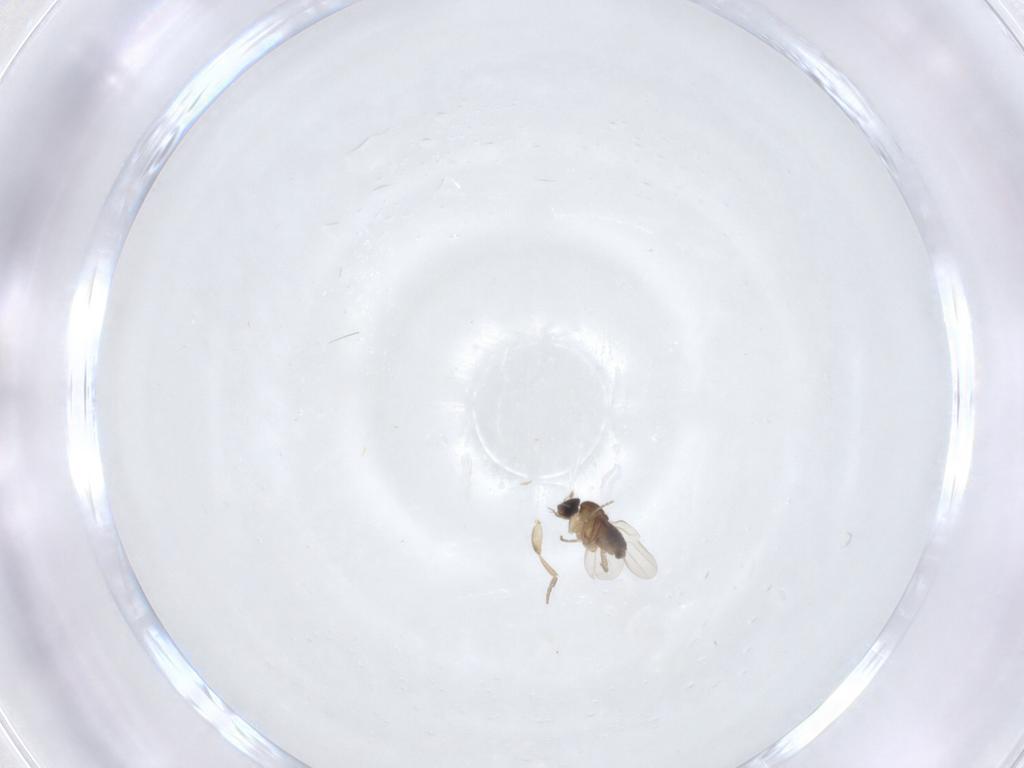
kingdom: Animalia
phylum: Arthropoda
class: Insecta
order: Diptera
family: Phoridae
